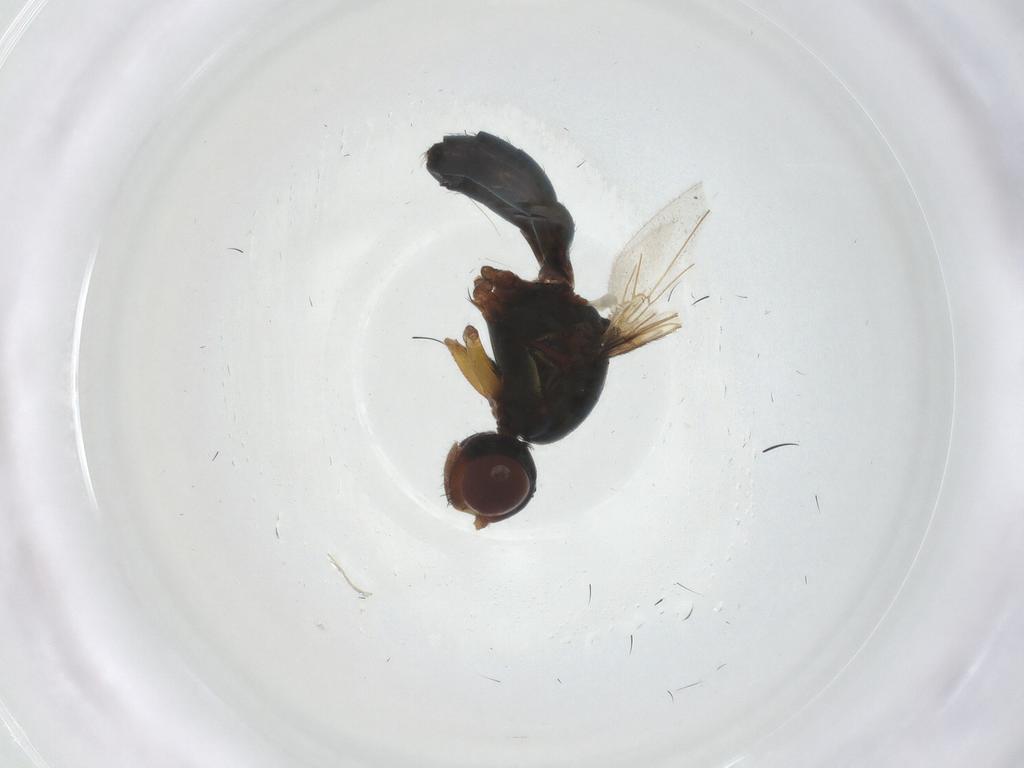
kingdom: Animalia
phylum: Arthropoda
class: Insecta
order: Diptera
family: Sepsidae
